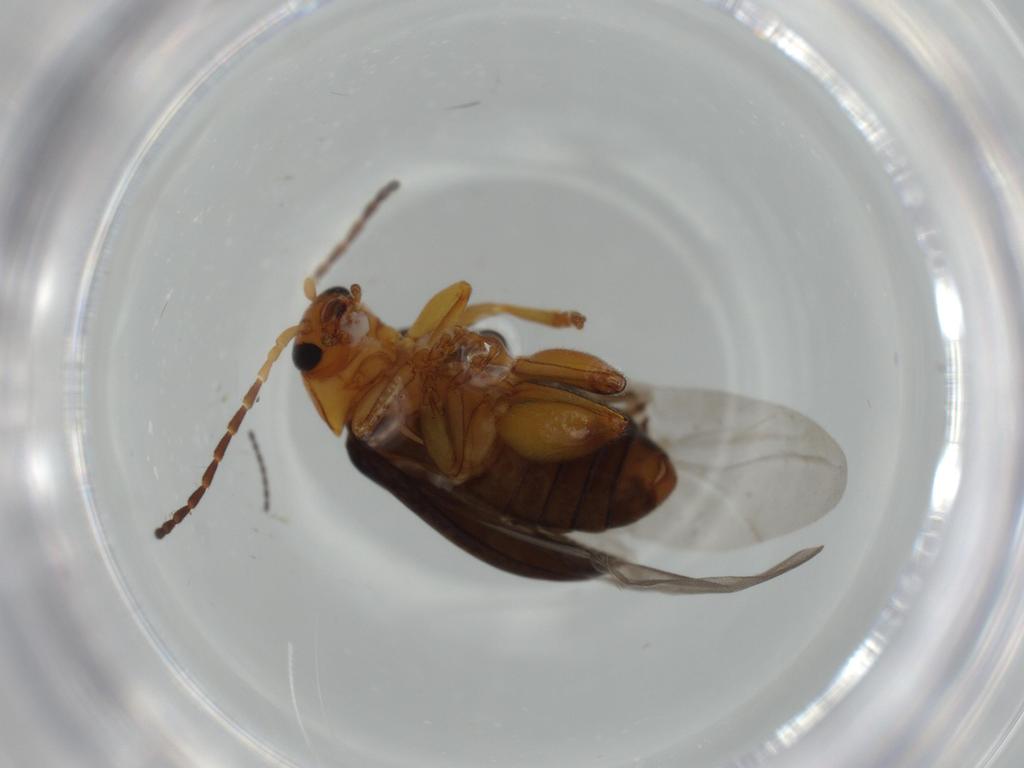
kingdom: Animalia
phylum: Arthropoda
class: Insecta
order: Coleoptera
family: Chrysomelidae
